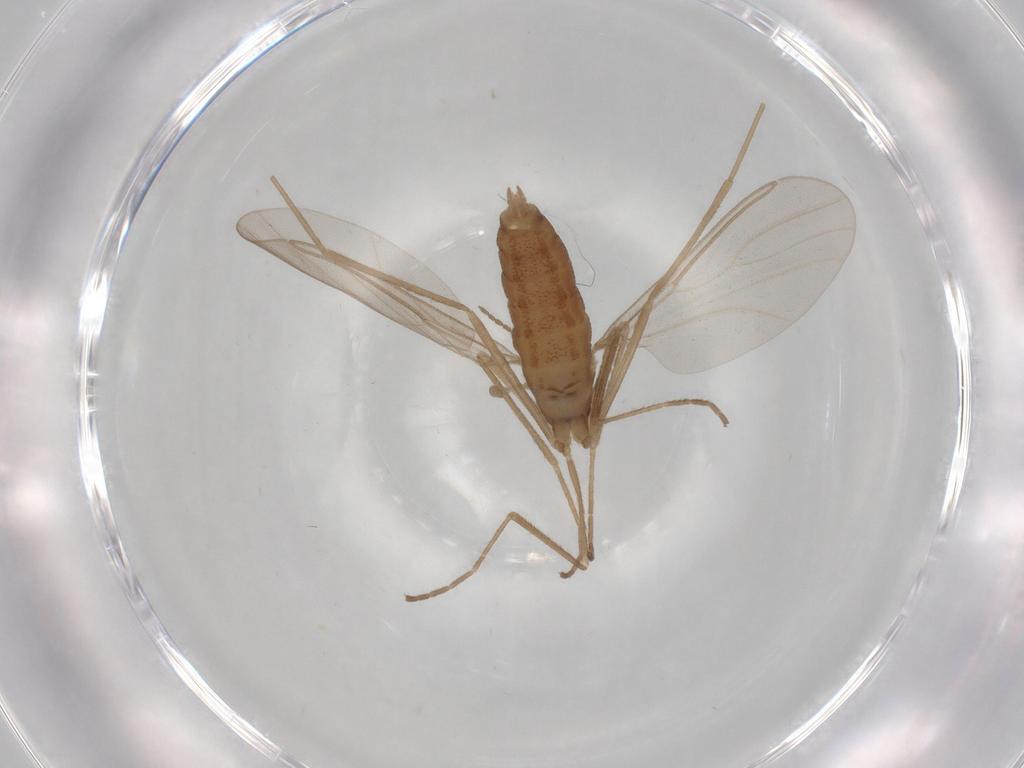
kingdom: Animalia
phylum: Arthropoda
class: Insecta
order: Diptera
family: Cecidomyiidae
